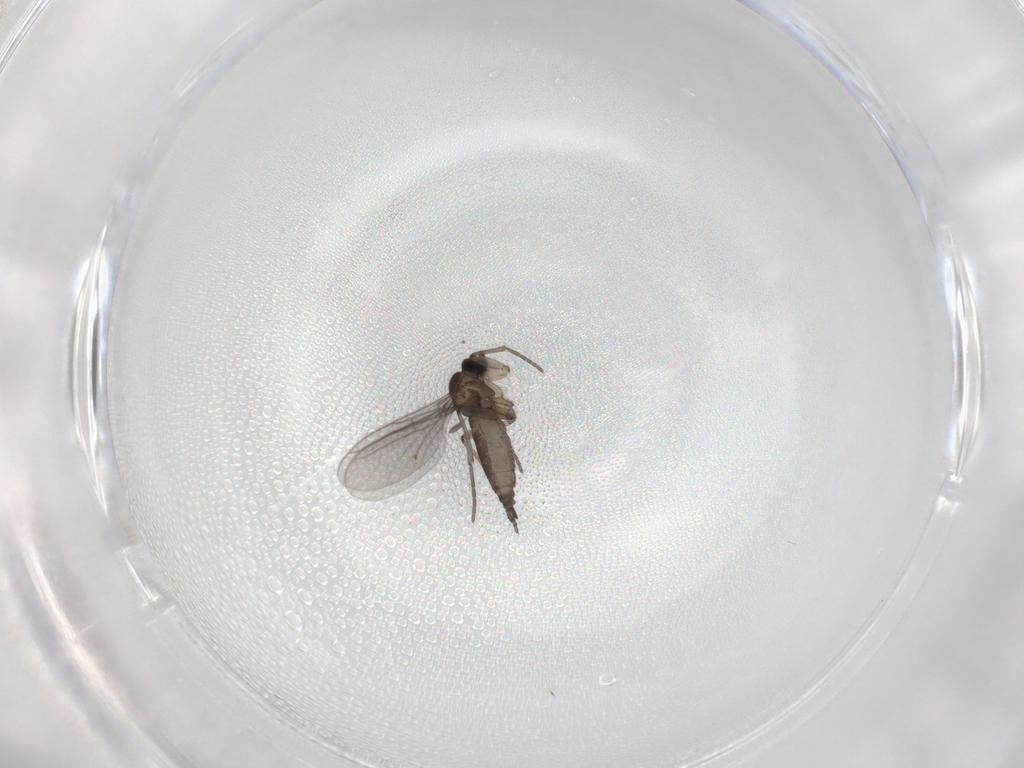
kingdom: Animalia
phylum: Arthropoda
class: Insecta
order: Diptera
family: Sciaridae
